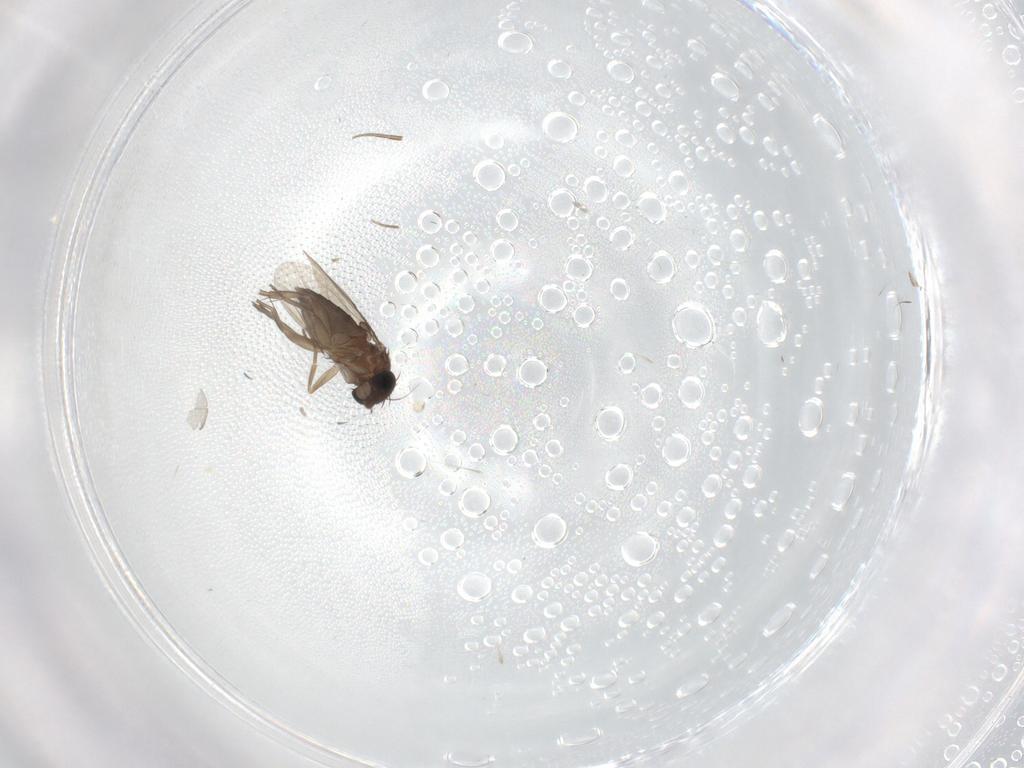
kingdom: Animalia
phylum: Arthropoda
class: Insecta
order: Diptera
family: Phoridae
